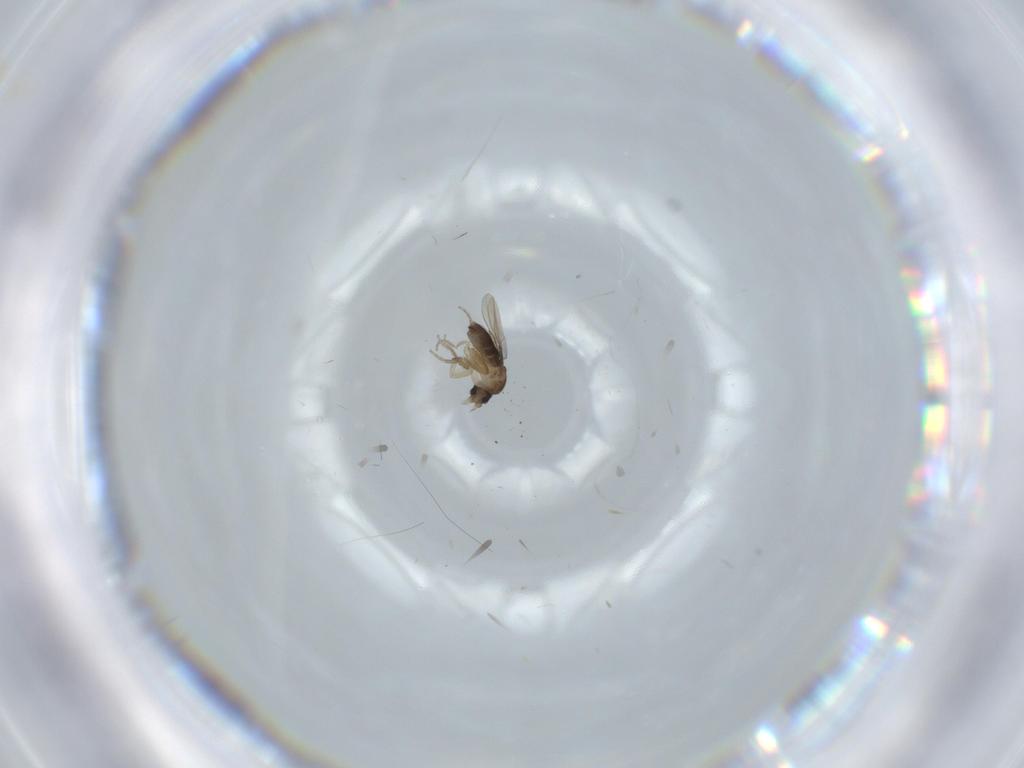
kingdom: Animalia
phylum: Arthropoda
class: Insecta
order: Diptera
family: Phoridae
